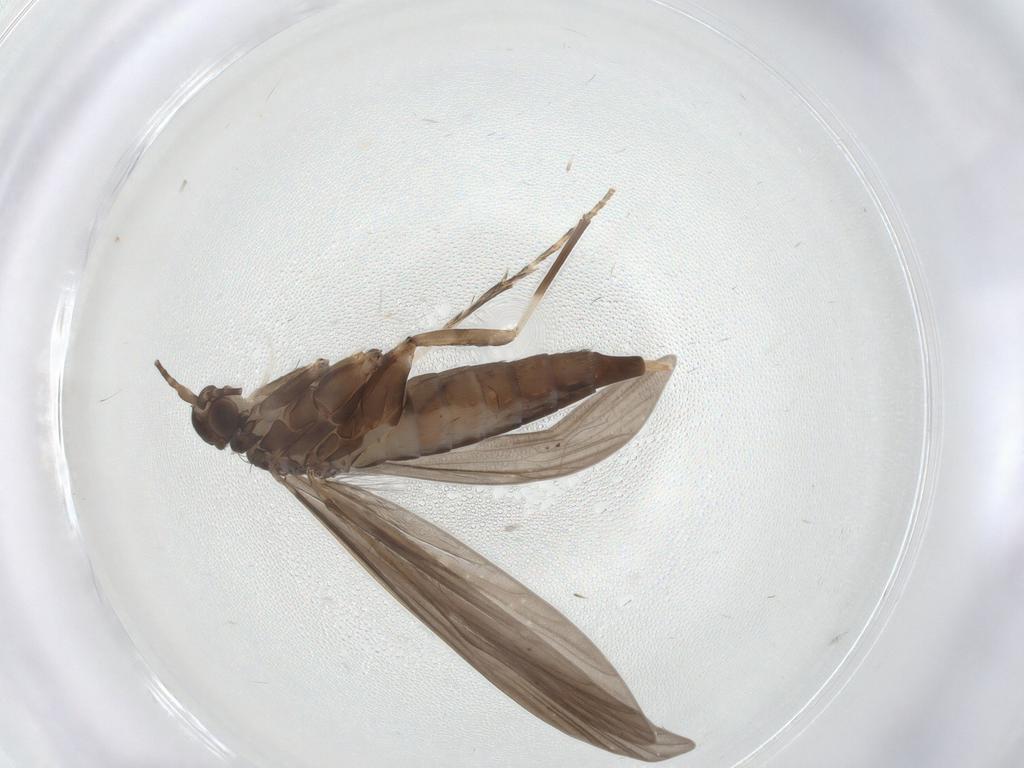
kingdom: Animalia
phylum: Arthropoda
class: Insecta
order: Trichoptera
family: Xiphocentronidae
